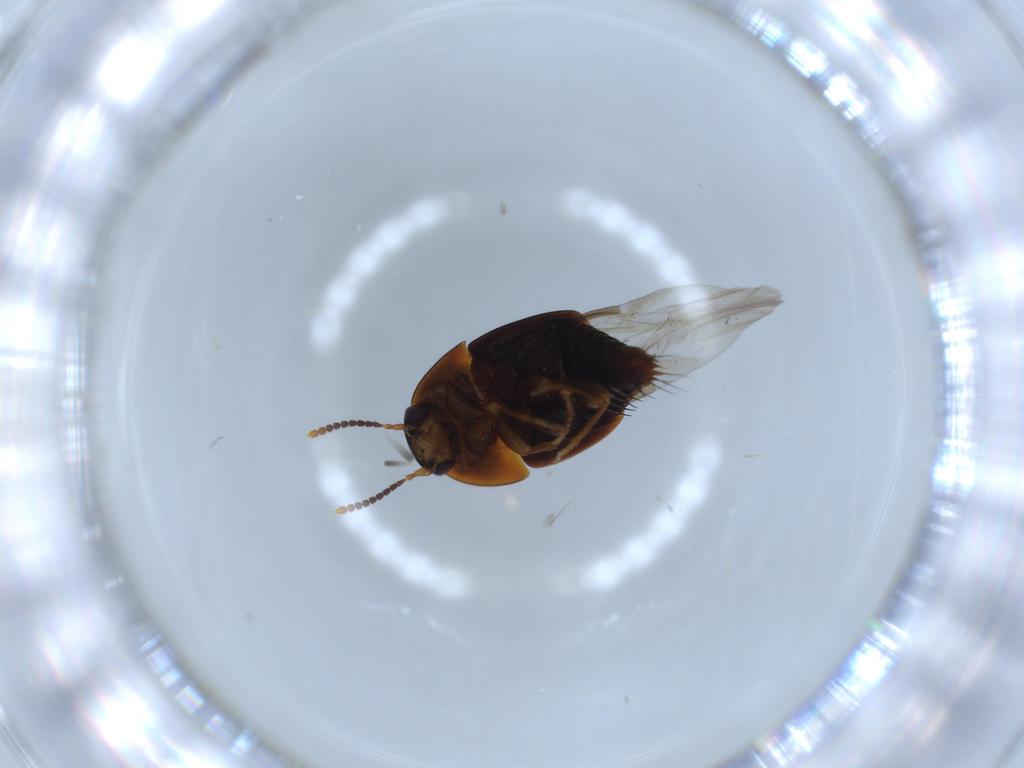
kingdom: Animalia
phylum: Arthropoda
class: Insecta
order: Coleoptera
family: Staphylinidae
